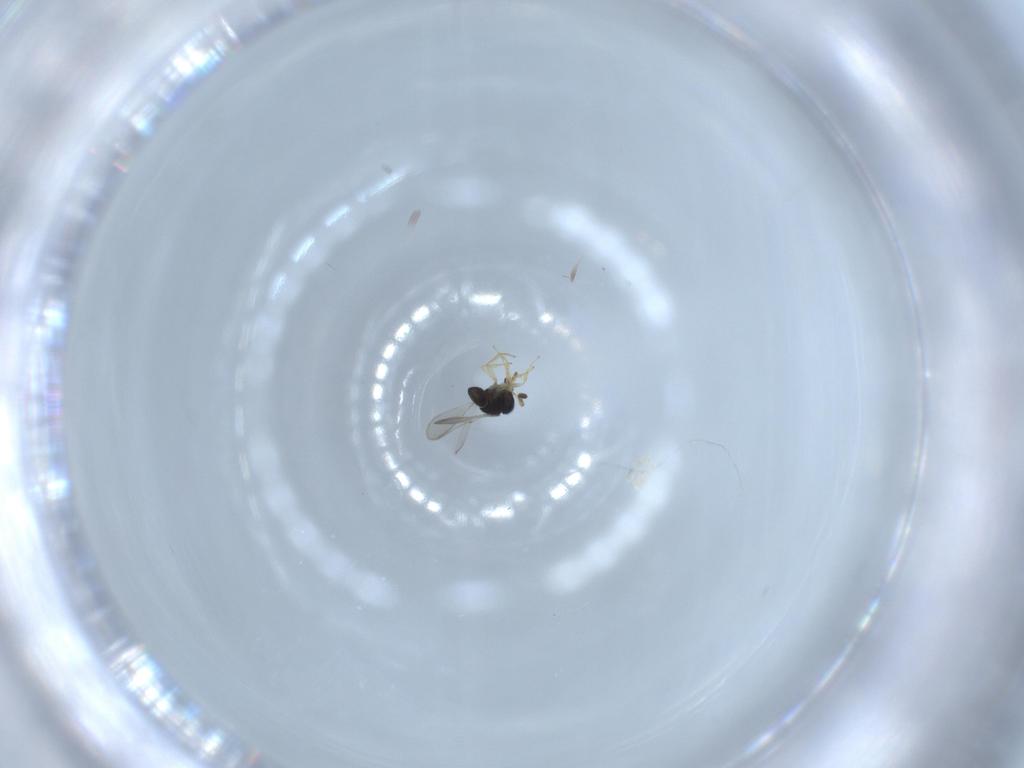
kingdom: Animalia
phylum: Arthropoda
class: Insecta
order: Hymenoptera
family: Scelionidae
